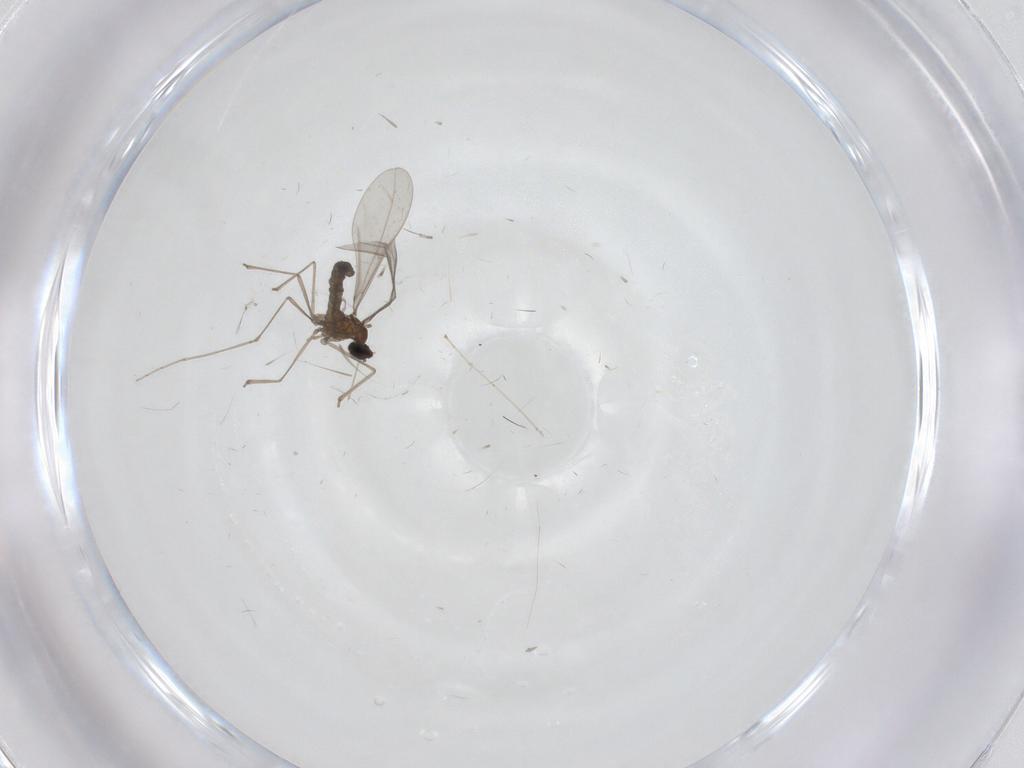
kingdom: Animalia
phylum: Arthropoda
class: Insecta
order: Diptera
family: Cecidomyiidae
